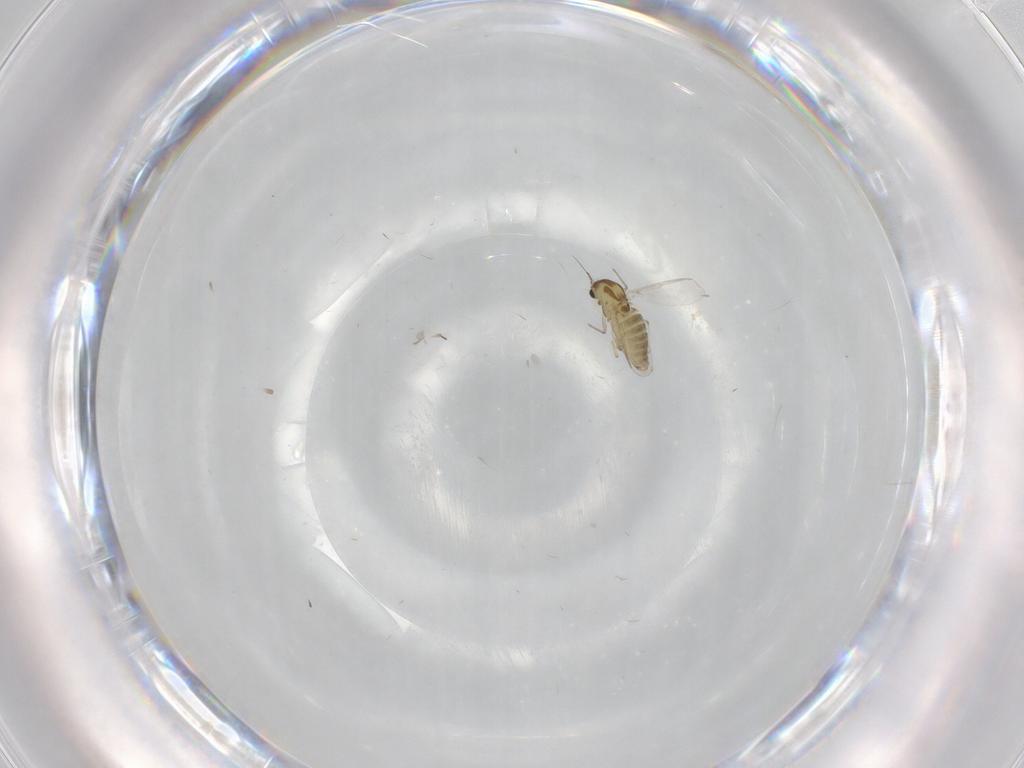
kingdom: Animalia
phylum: Arthropoda
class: Insecta
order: Diptera
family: Chironomidae
